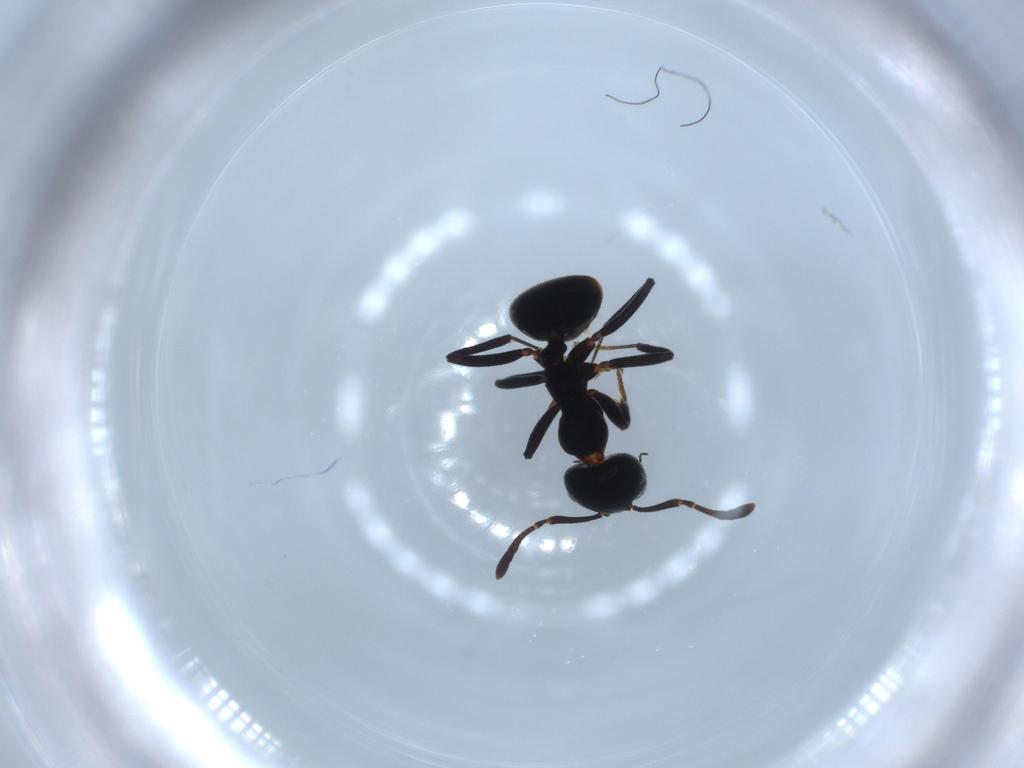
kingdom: Animalia
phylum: Arthropoda
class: Insecta
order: Hymenoptera
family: Formicidae
